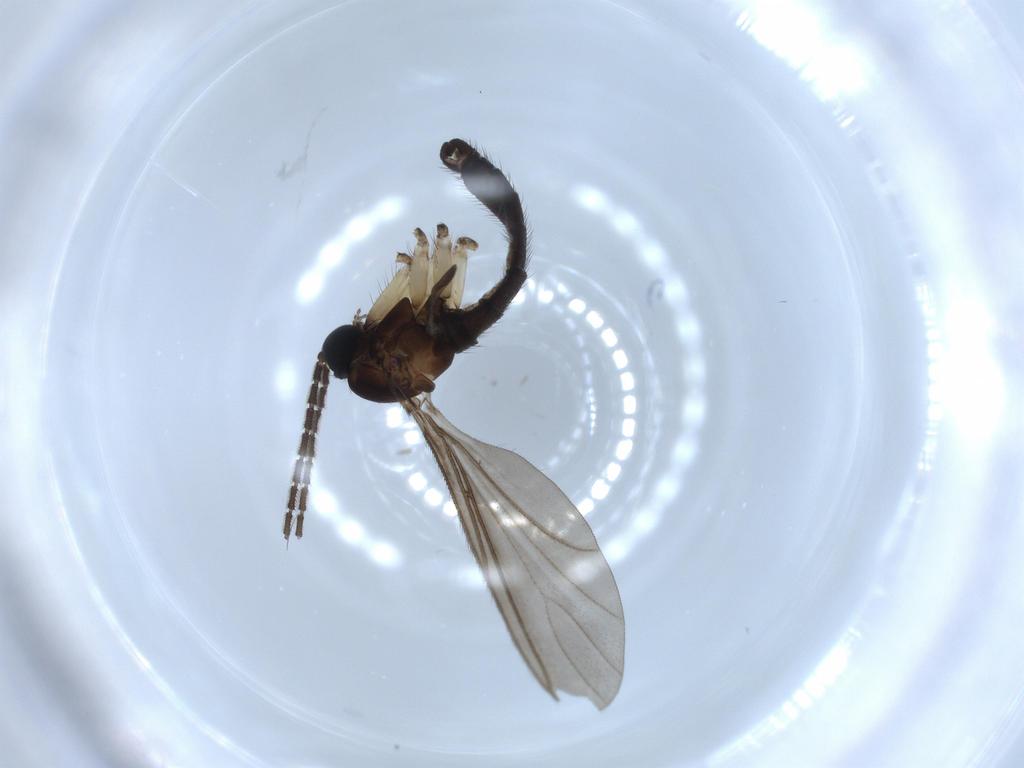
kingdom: Animalia
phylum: Arthropoda
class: Insecta
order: Diptera
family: Sciaridae
